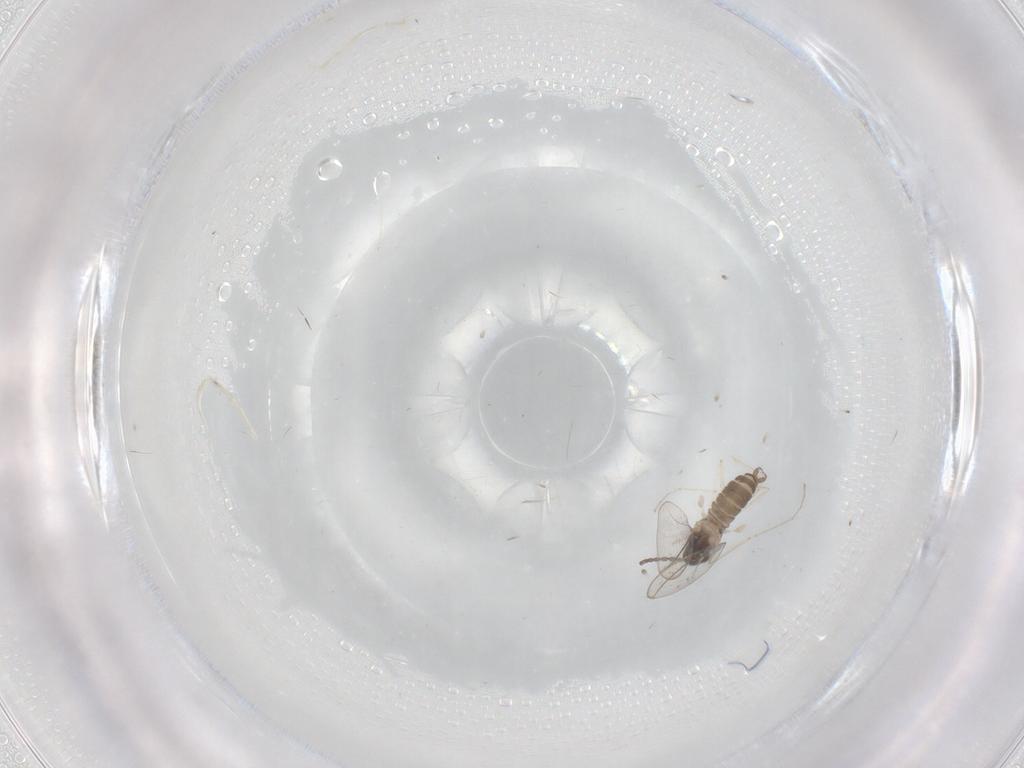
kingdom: Animalia
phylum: Arthropoda
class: Insecta
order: Diptera
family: Cecidomyiidae
